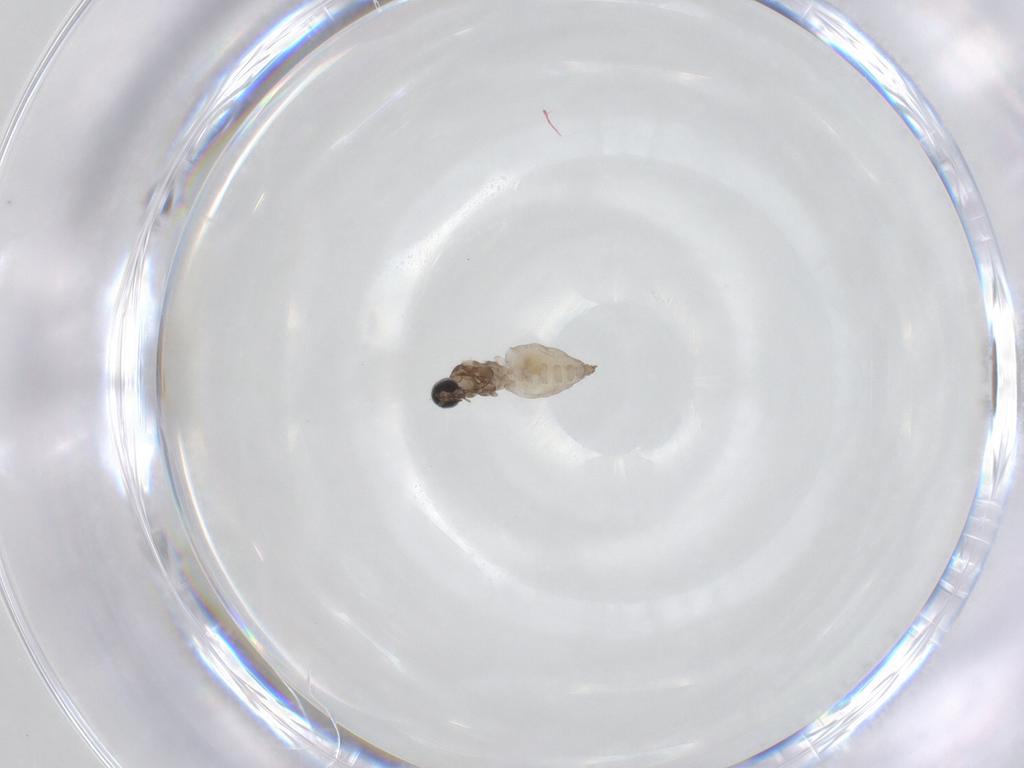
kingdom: Animalia
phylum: Arthropoda
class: Insecta
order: Diptera
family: Cecidomyiidae
